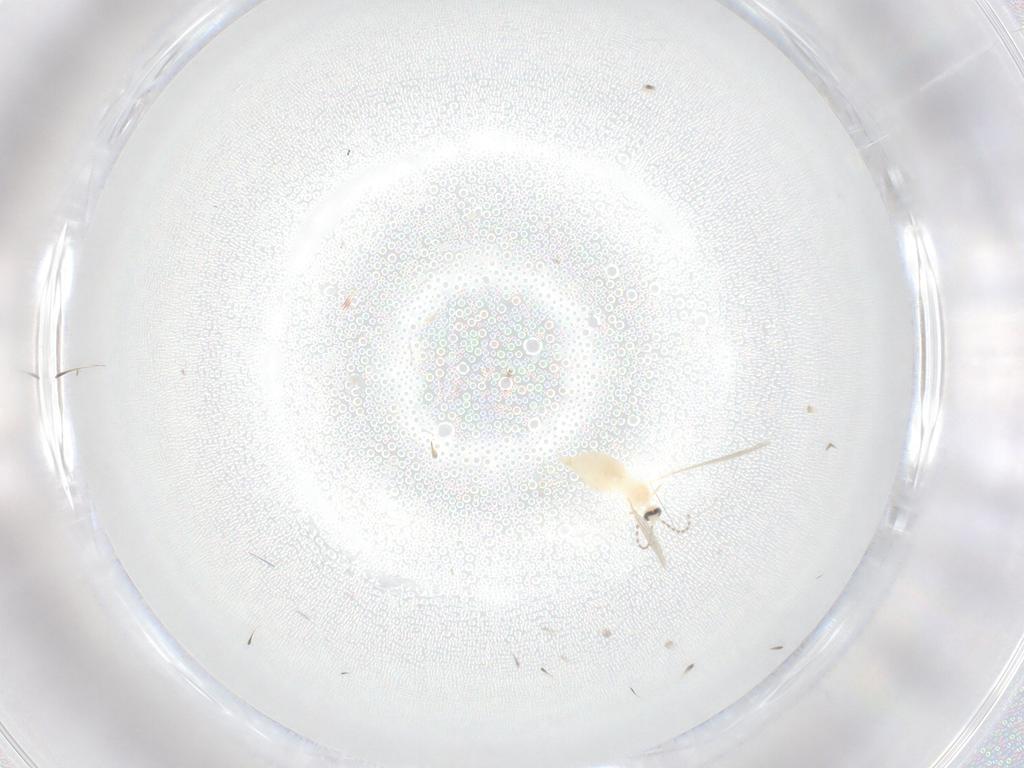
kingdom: Animalia
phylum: Arthropoda
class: Insecta
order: Diptera
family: Cecidomyiidae
